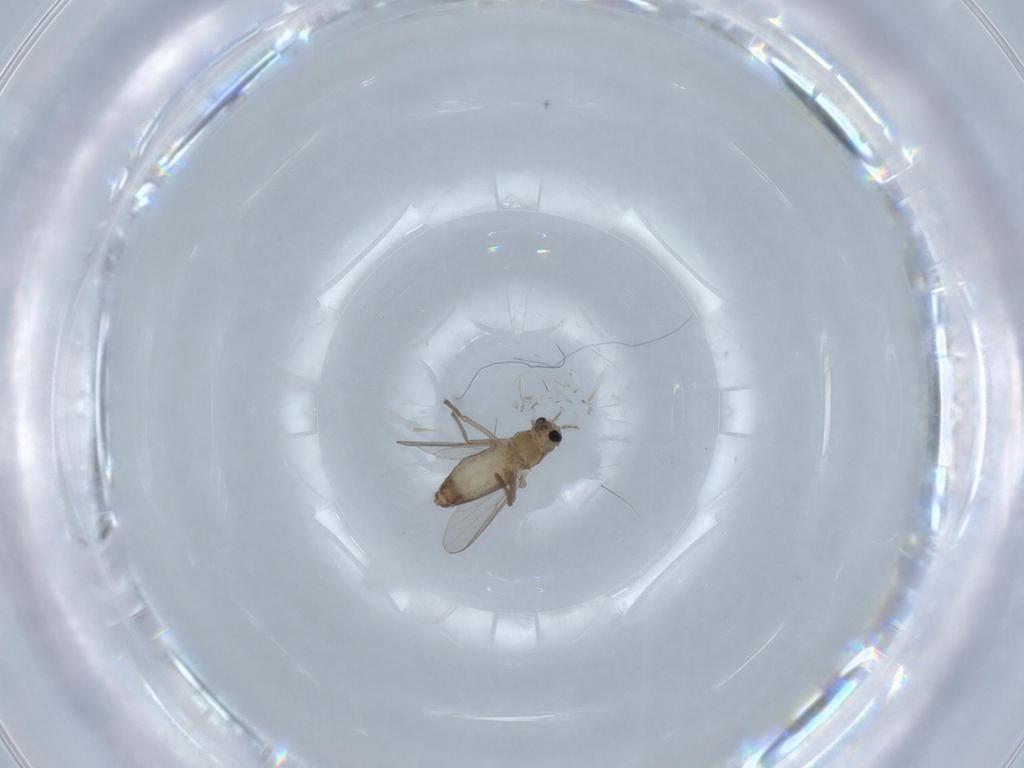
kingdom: Animalia
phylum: Arthropoda
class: Insecta
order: Diptera
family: Chironomidae
